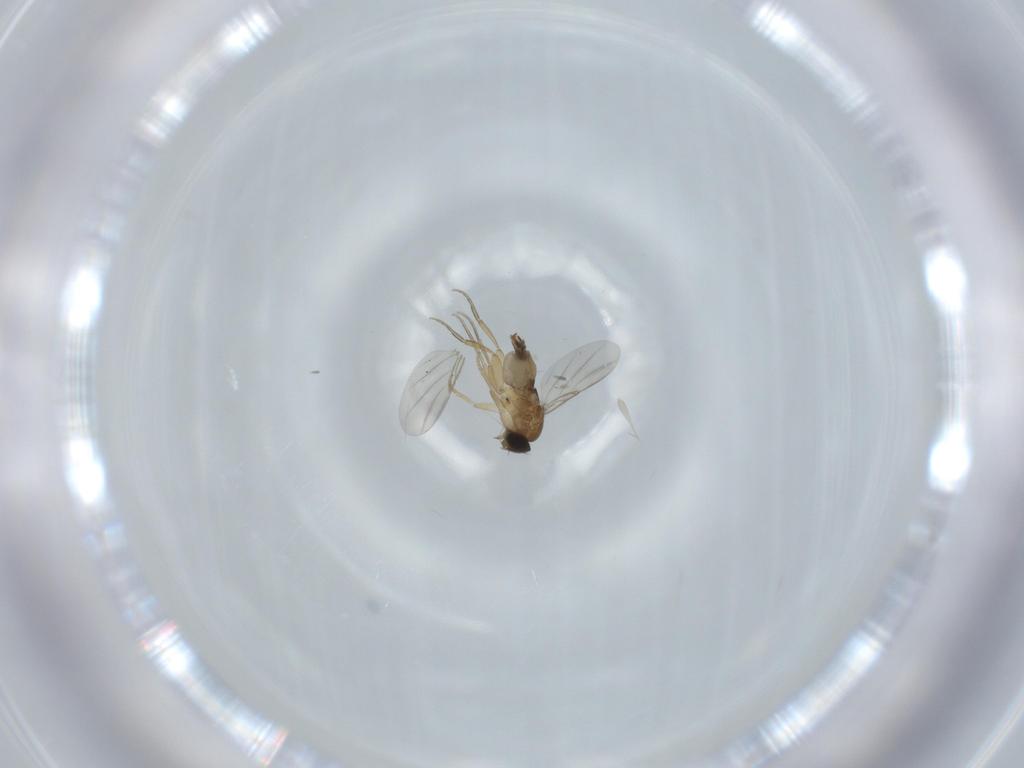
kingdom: Animalia
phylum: Arthropoda
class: Insecta
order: Diptera
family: Phoridae
